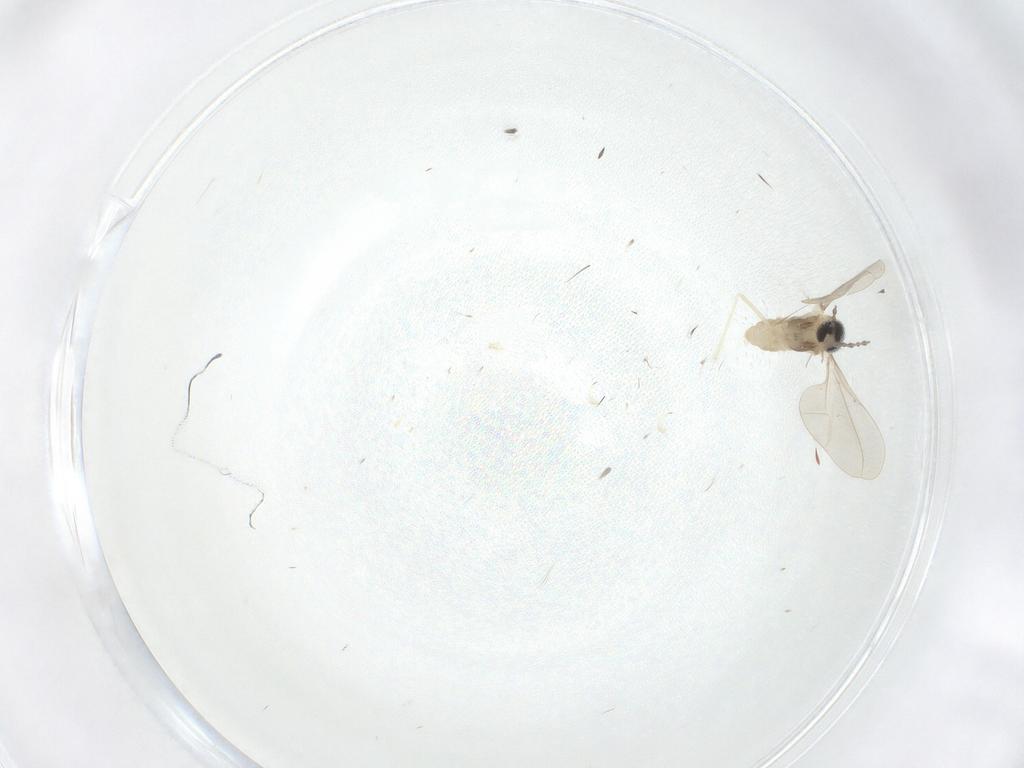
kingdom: Animalia
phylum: Arthropoda
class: Insecta
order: Diptera
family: Cecidomyiidae
